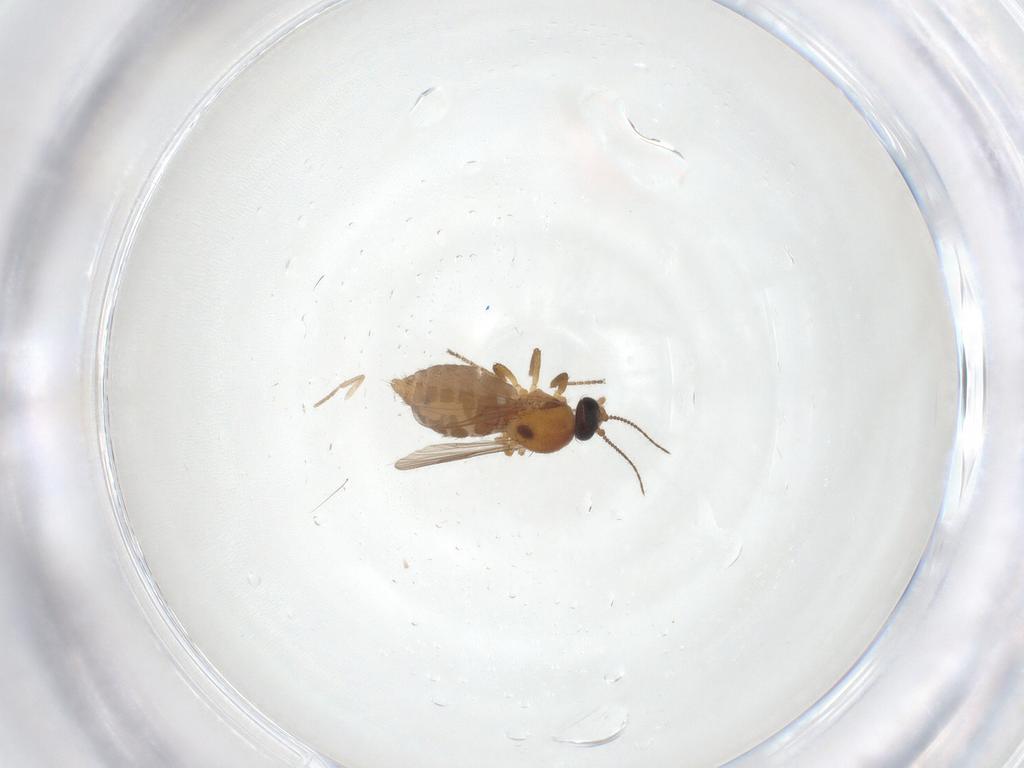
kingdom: Animalia
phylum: Arthropoda
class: Insecta
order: Diptera
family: Ceratopogonidae
